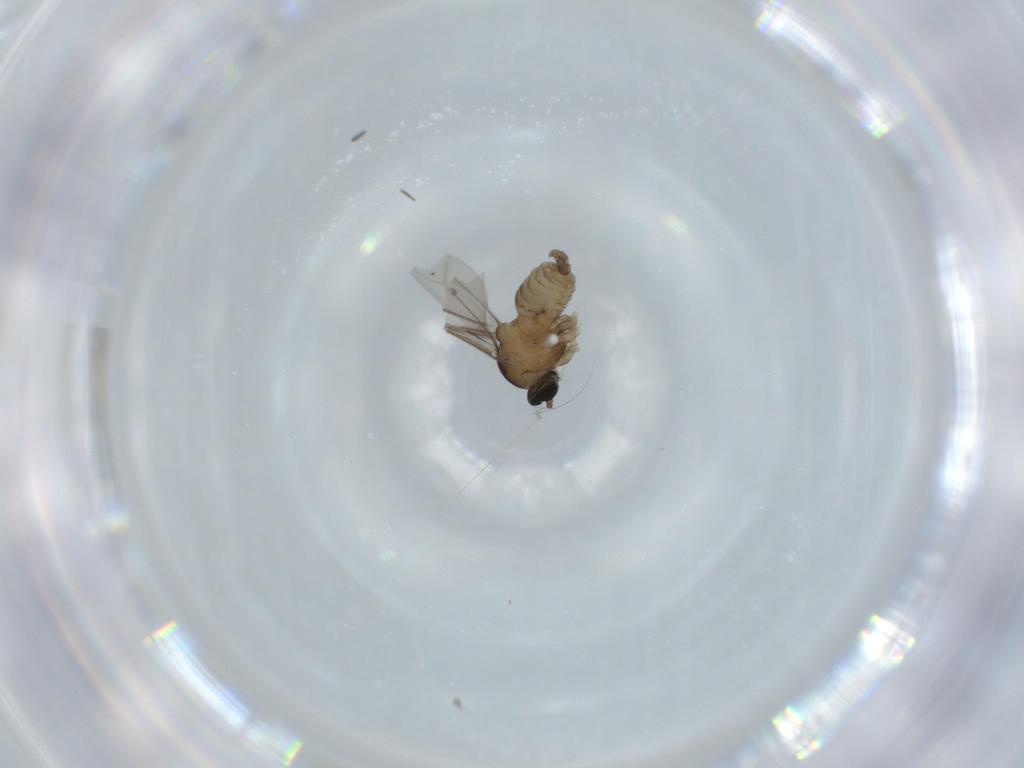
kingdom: Animalia
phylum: Arthropoda
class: Insecta
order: Diptera
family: Cecidomyiidae
